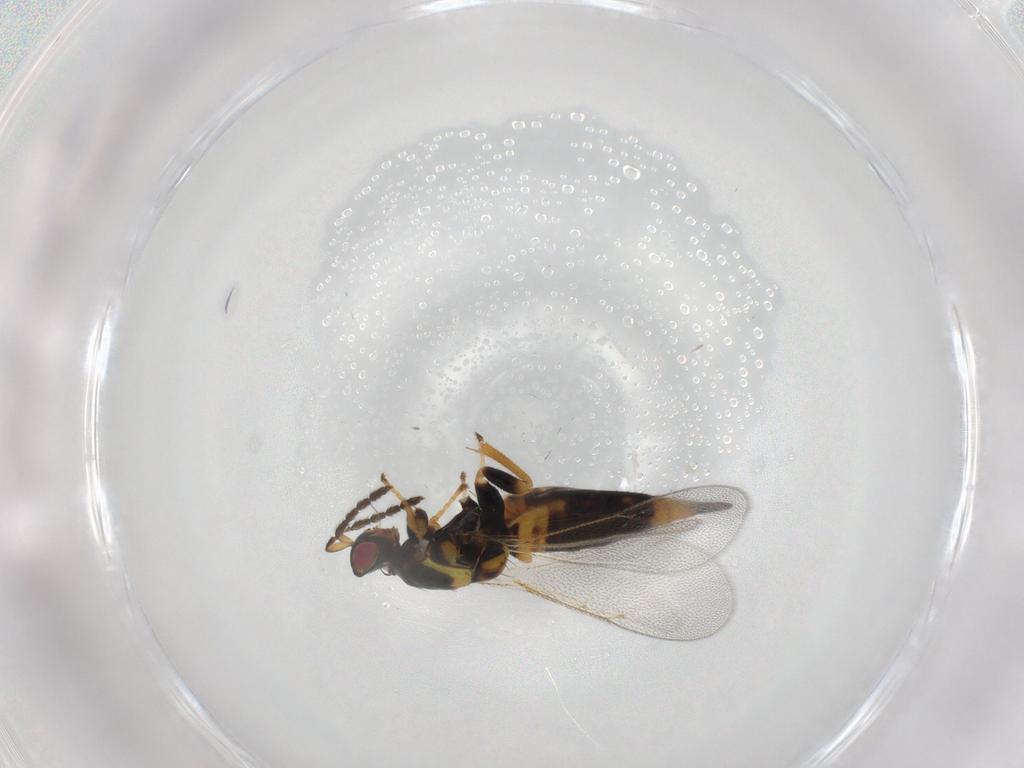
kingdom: Animalia
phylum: Arthropoda
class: Insecta
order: Hymenoptera
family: Eulophidae
